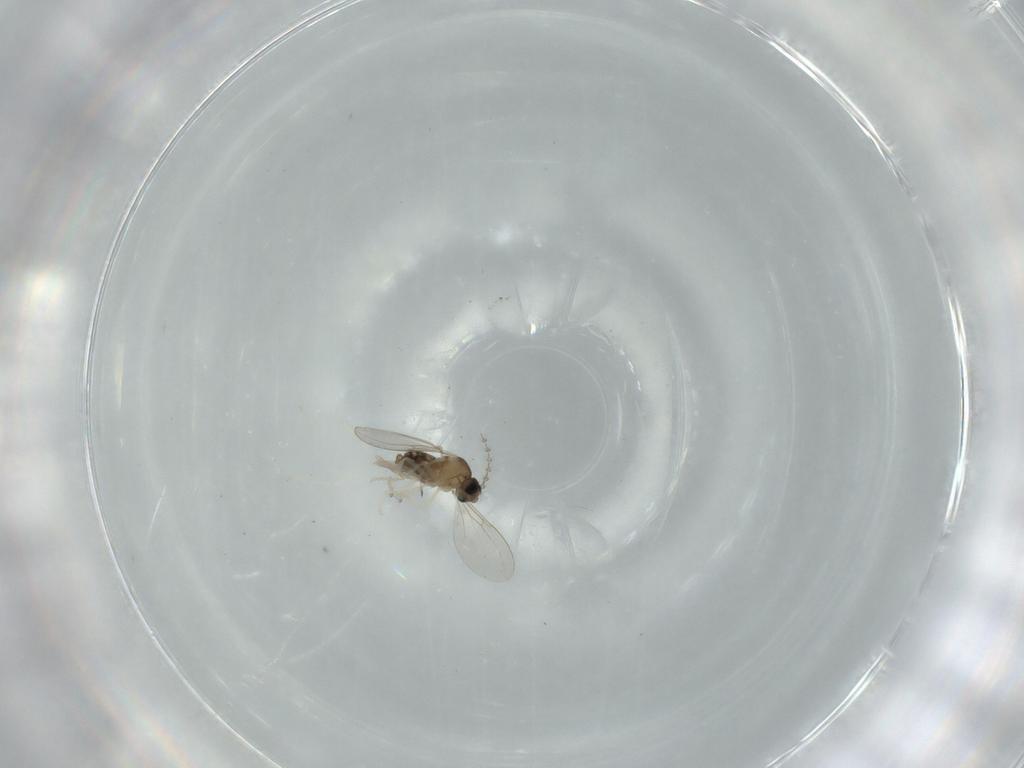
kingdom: Animalia
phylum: Arthropoda
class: Insecta
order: Diptera
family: Cecidomyiidae
